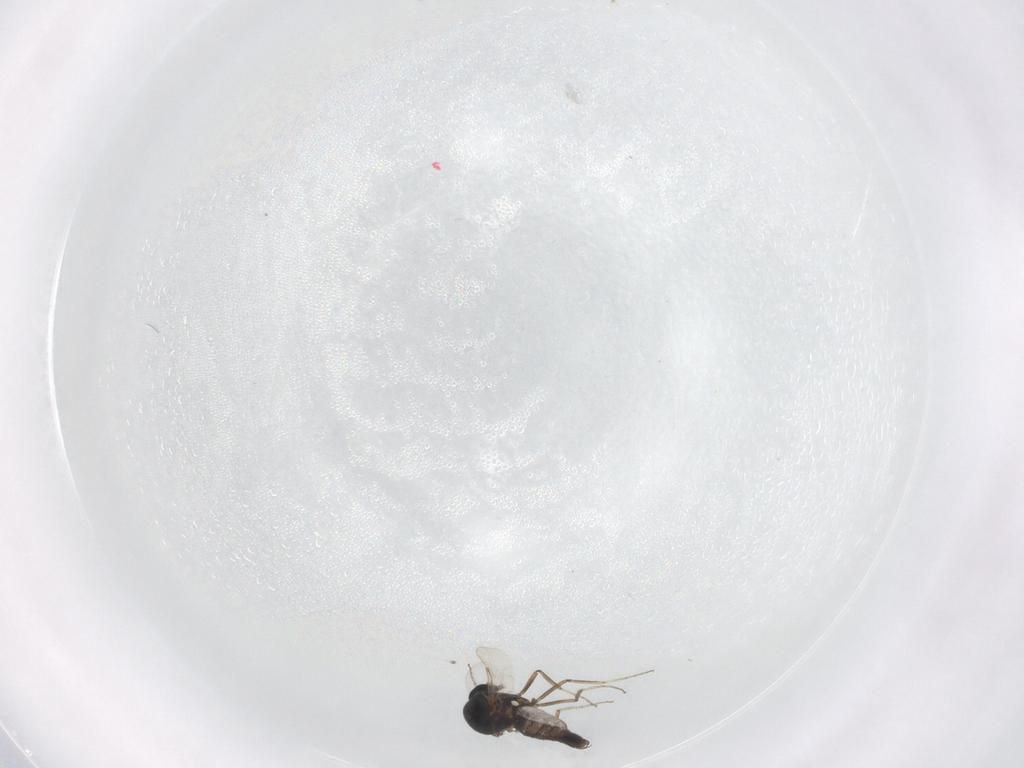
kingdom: Animalia
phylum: Arthropoda
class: Insecta
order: Diptera
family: Ceratopogonidae
